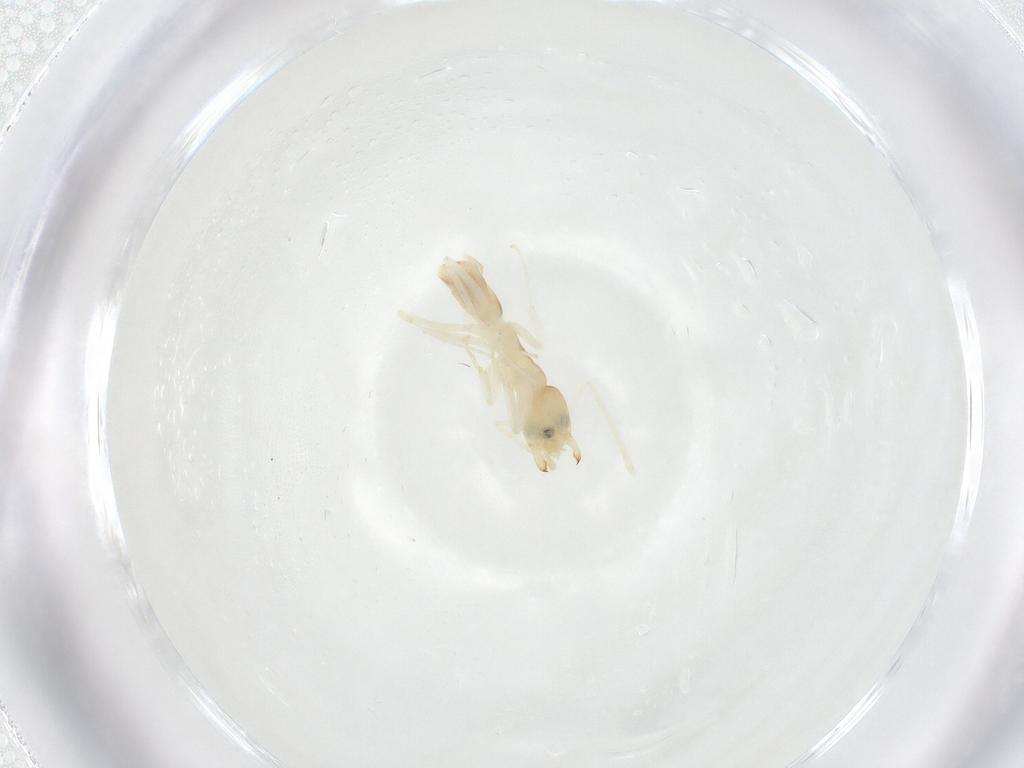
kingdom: Animalia
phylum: Arthropoda
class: Insecta
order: Hymenoptera
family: Formicidae
